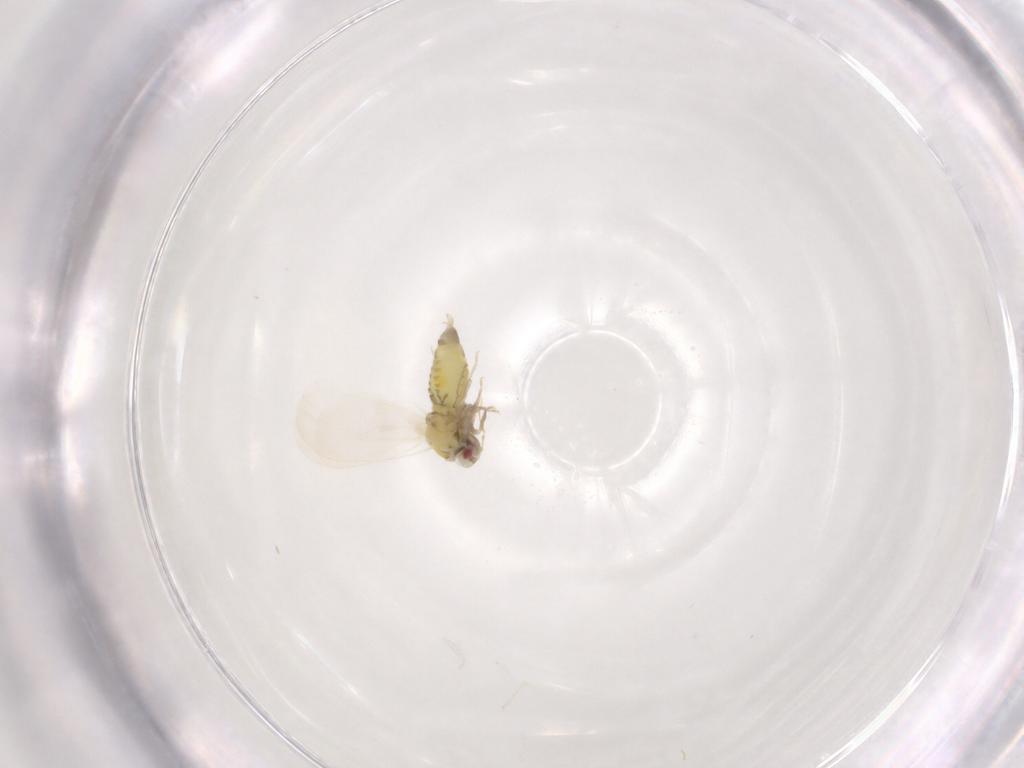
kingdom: Animalia
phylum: Arthropoda
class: Insecta
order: Hemiptera
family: Aleyrodidae
